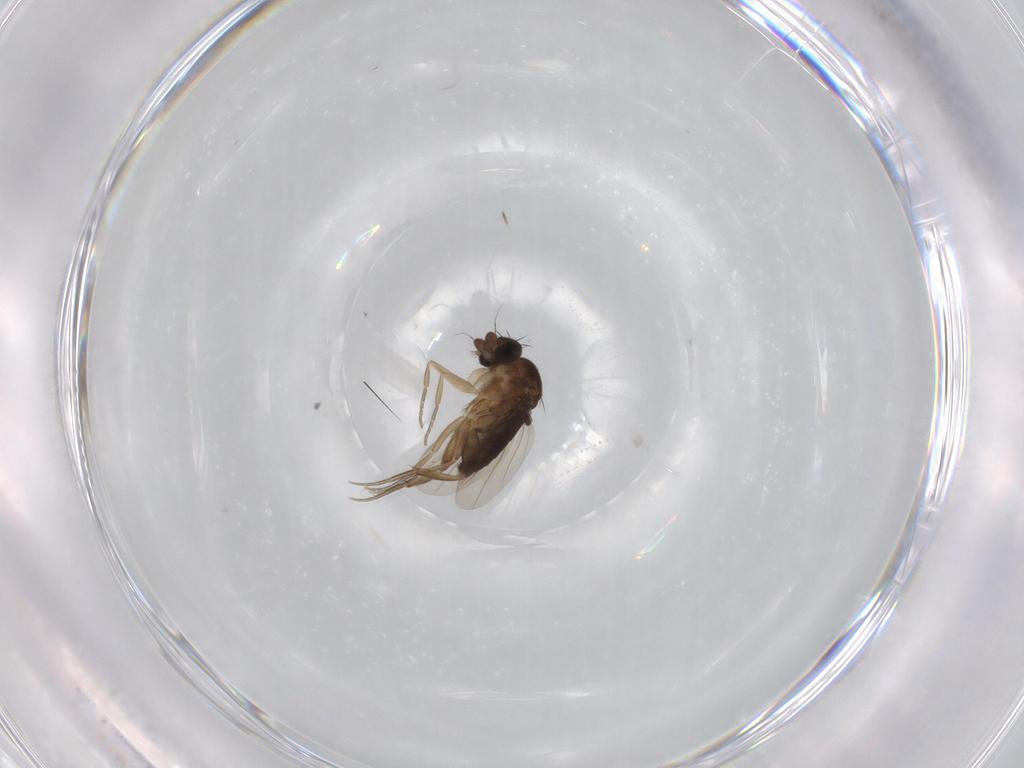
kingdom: Animalia
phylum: Arthropoda
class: Insecta
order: Diptera
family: Phoridae
